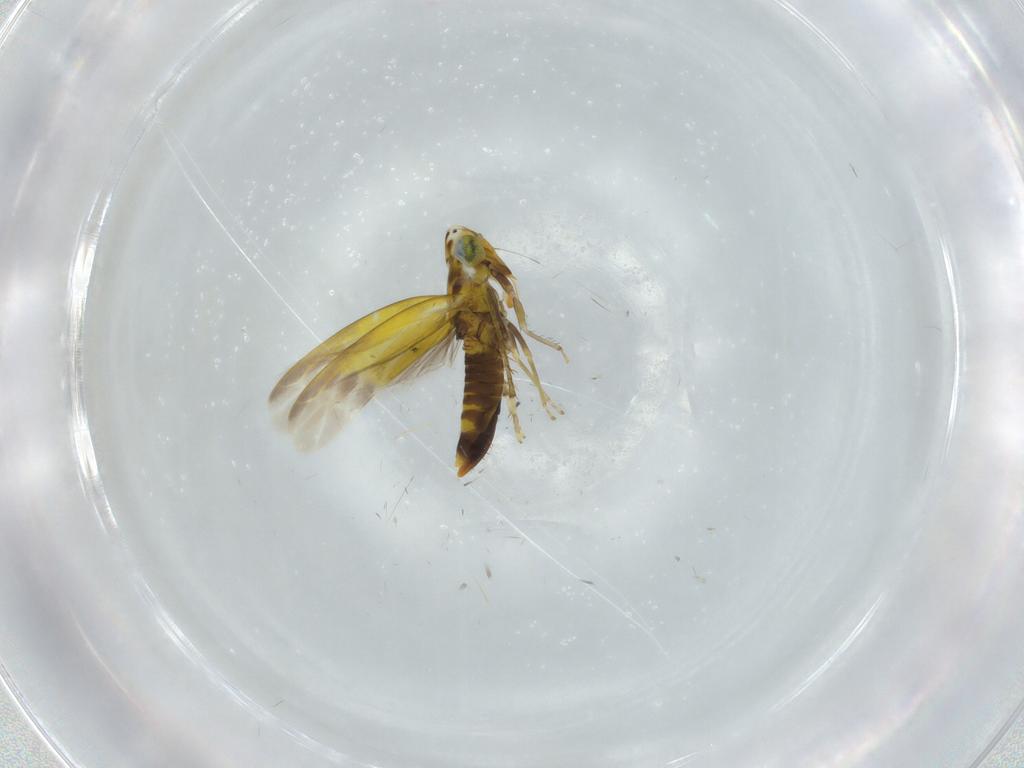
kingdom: Animalia
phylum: Arthropoda
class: Insecta
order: Hemiptera
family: Cicadellidae
